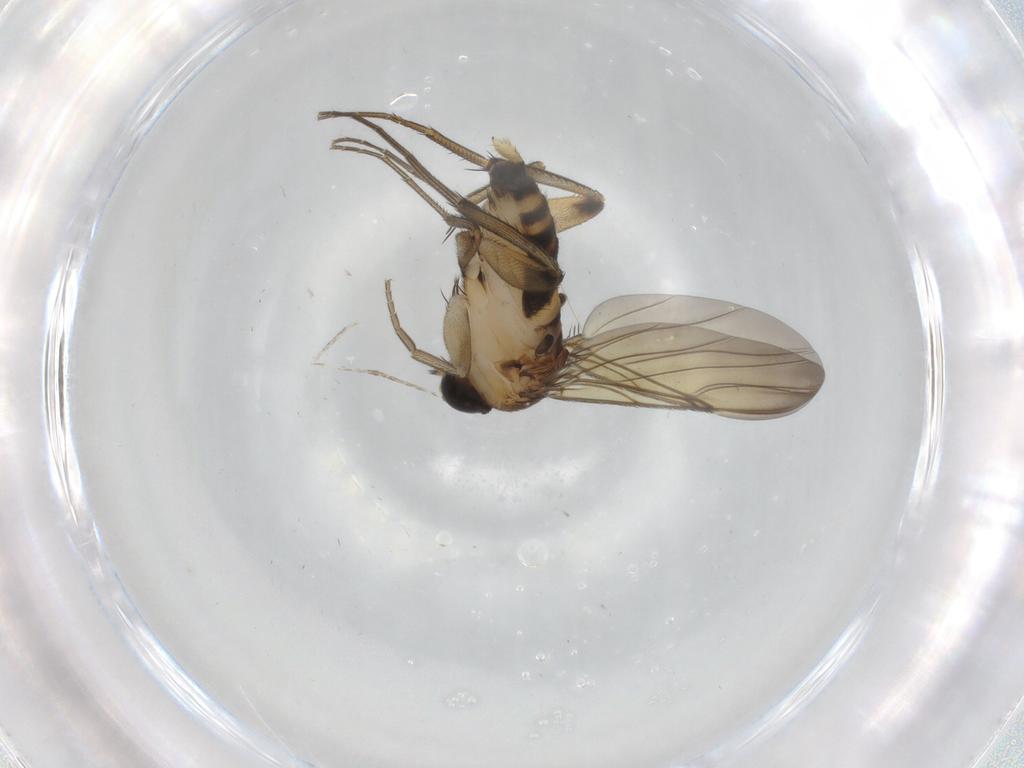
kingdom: Animalia
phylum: Arthropoda
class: Insecta
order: Diptera
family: Phoridae
